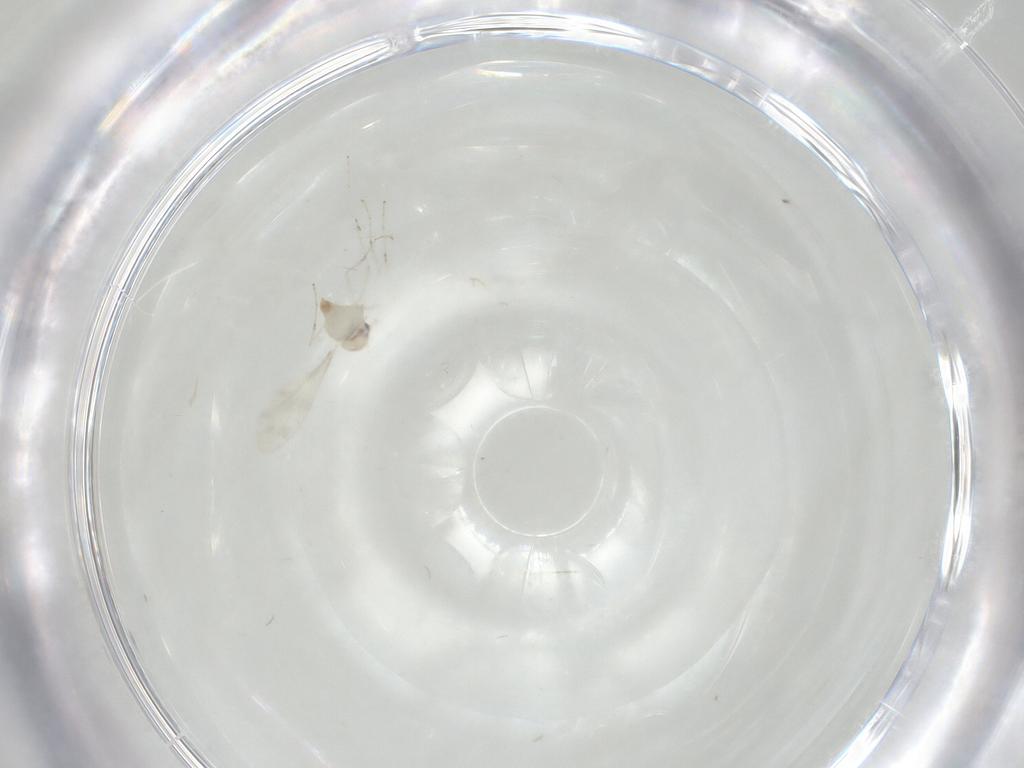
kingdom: Animalia
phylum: Arthropoda
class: Insecta
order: Diptera
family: Cecidomyiidae
